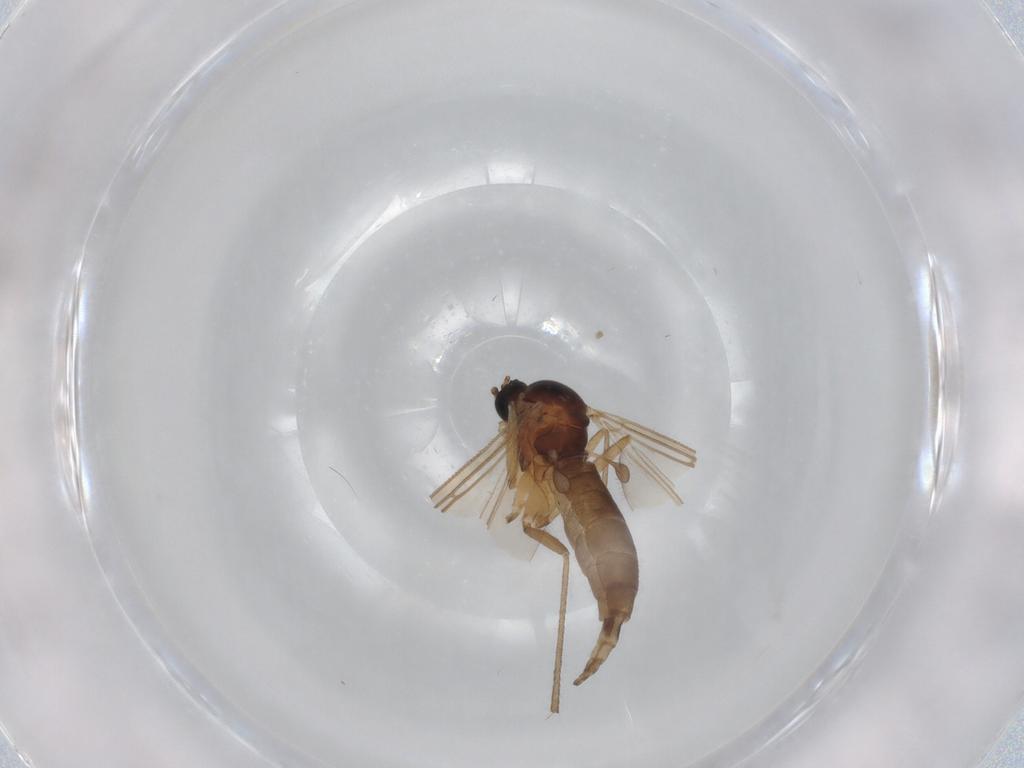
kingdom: Animalia
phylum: Arthropoda
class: Insecta
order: Diptera
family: Sciaridae
